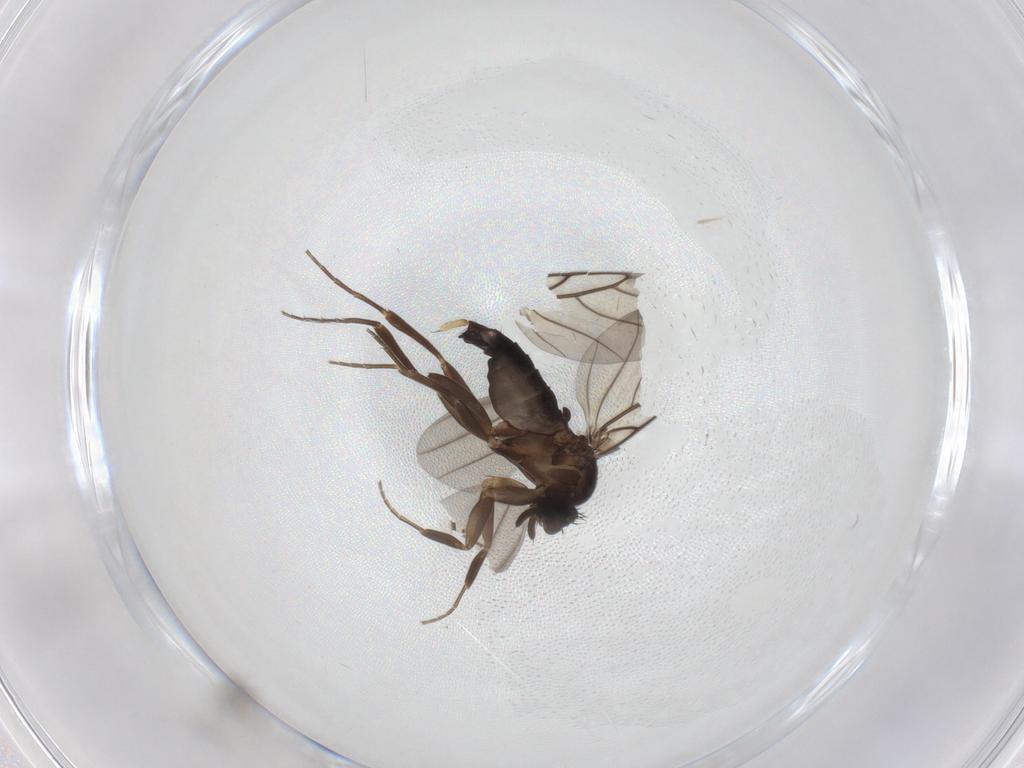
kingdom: Animalia
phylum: Arthropoda
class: Insecta
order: Diptera
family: Phoridae
